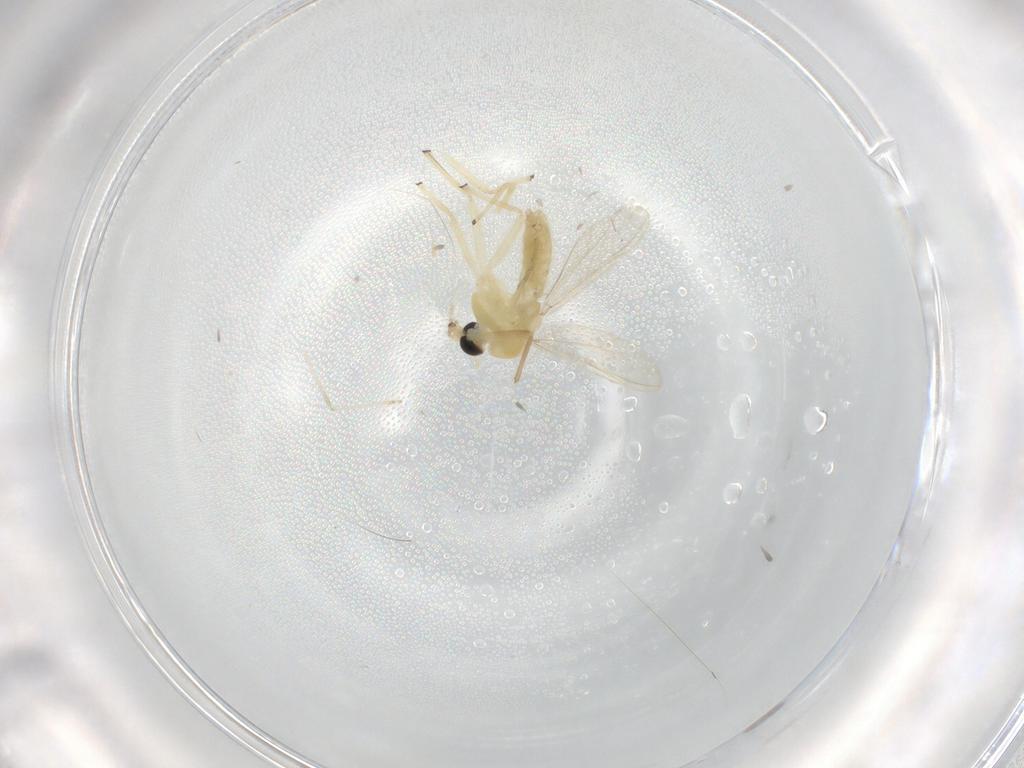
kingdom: Animalia
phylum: Arthropoda
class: Insecta
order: Diptera
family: Chironomidae
